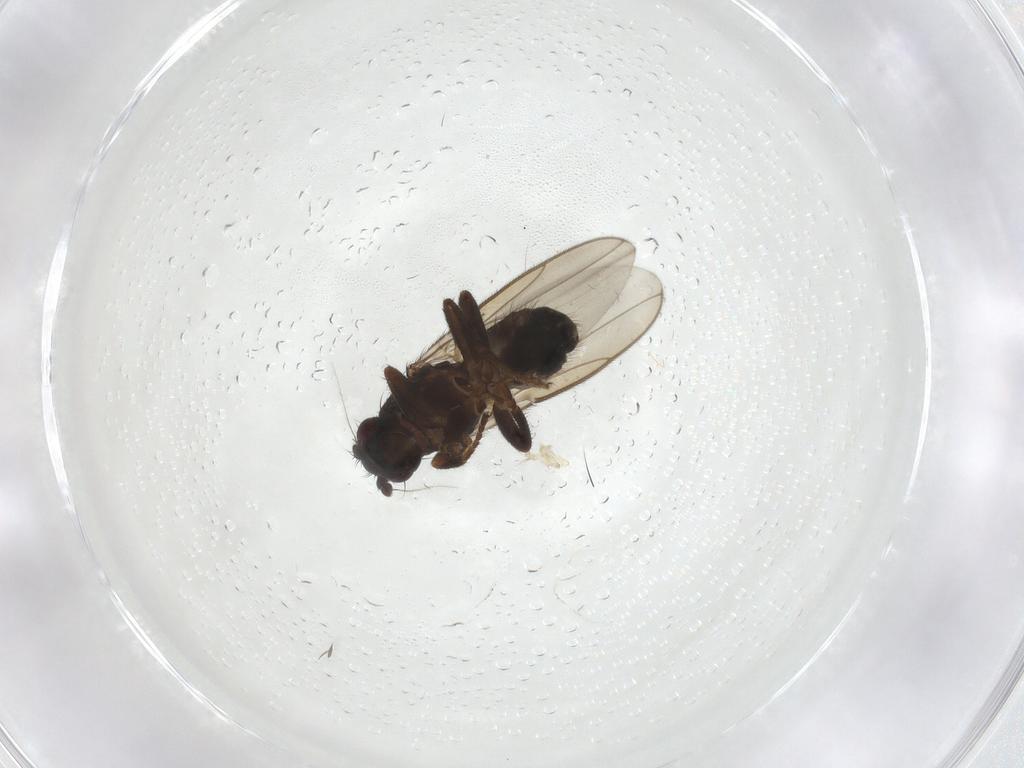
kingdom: Animalia
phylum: Arthropoda
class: Insecta
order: Diptera
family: Sphaeroceridae
